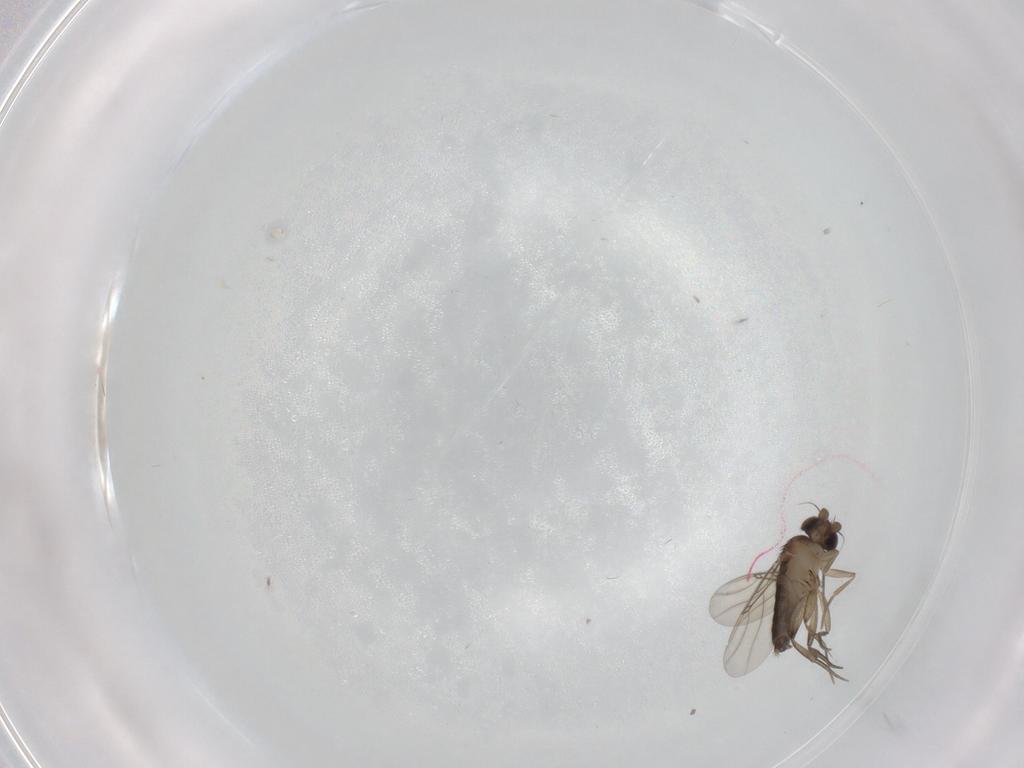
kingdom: Animalia
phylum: Arthropoda
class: Insecta
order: Diptera
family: Phoridae
